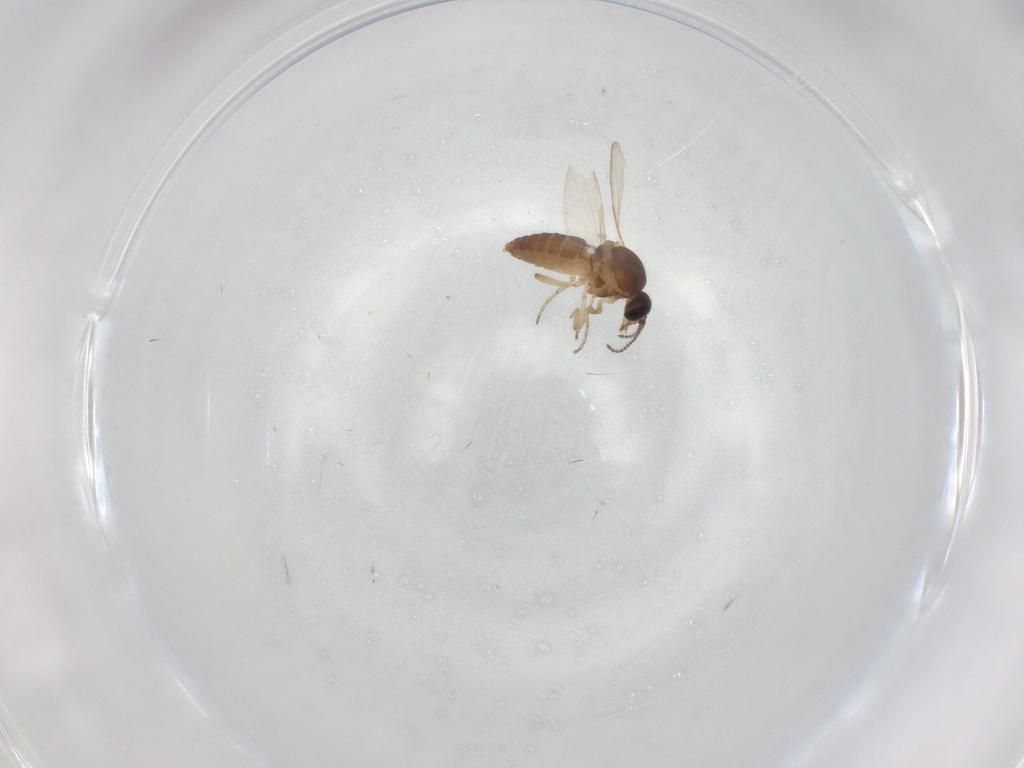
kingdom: Animalia
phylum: Arthropoda
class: Insecta
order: Diptera
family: Ceratopogonidae
